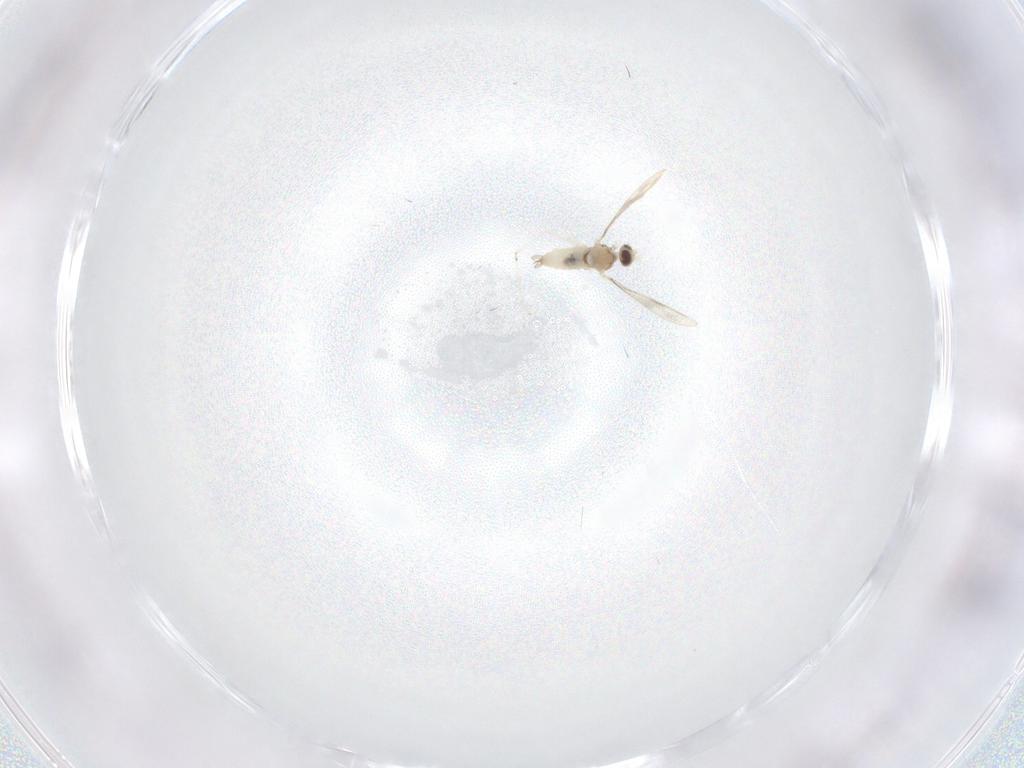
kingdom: Animalia
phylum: Arthropoda
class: Insecta
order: Diptera
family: Cecidomyiidae
